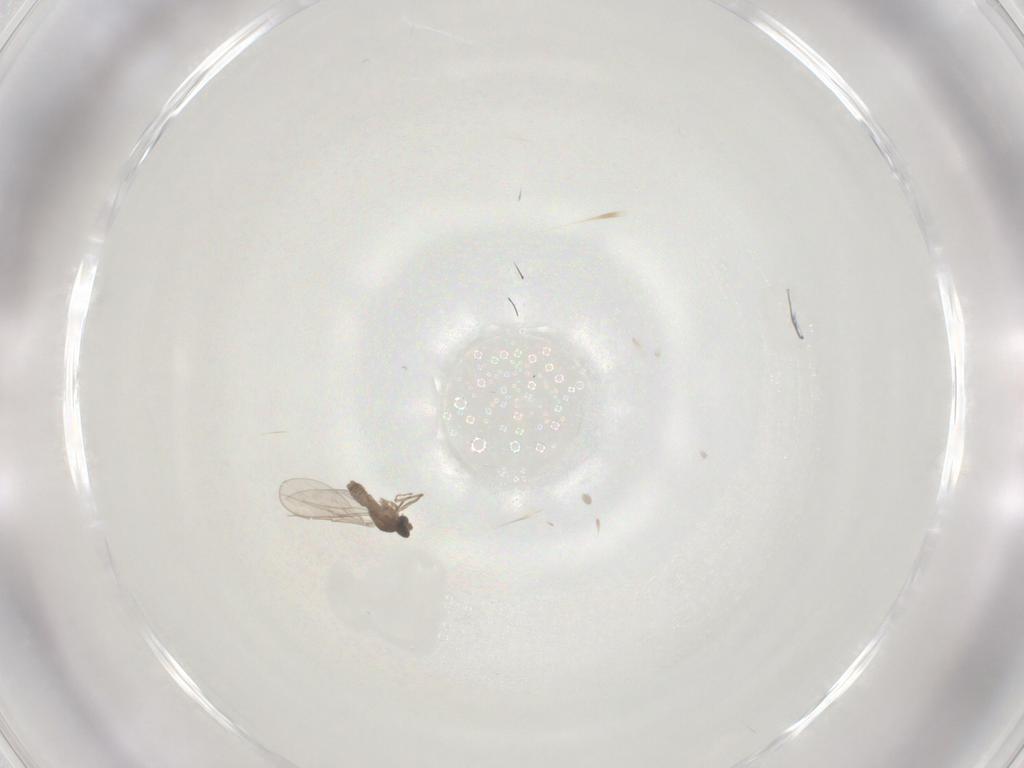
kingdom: Animalia
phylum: Arthropoda
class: Insecta
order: Diptera
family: Cecidomyiidae
